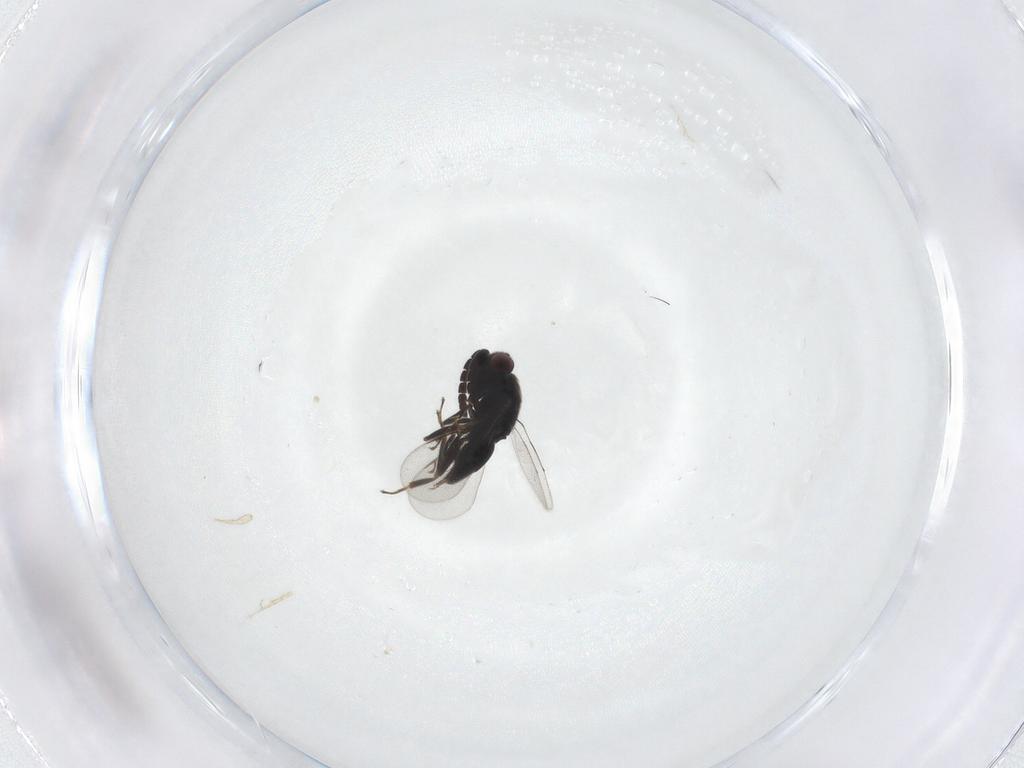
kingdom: Animalia
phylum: Arthropoda
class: Insecta
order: Hymenoptera
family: Eunotidae
